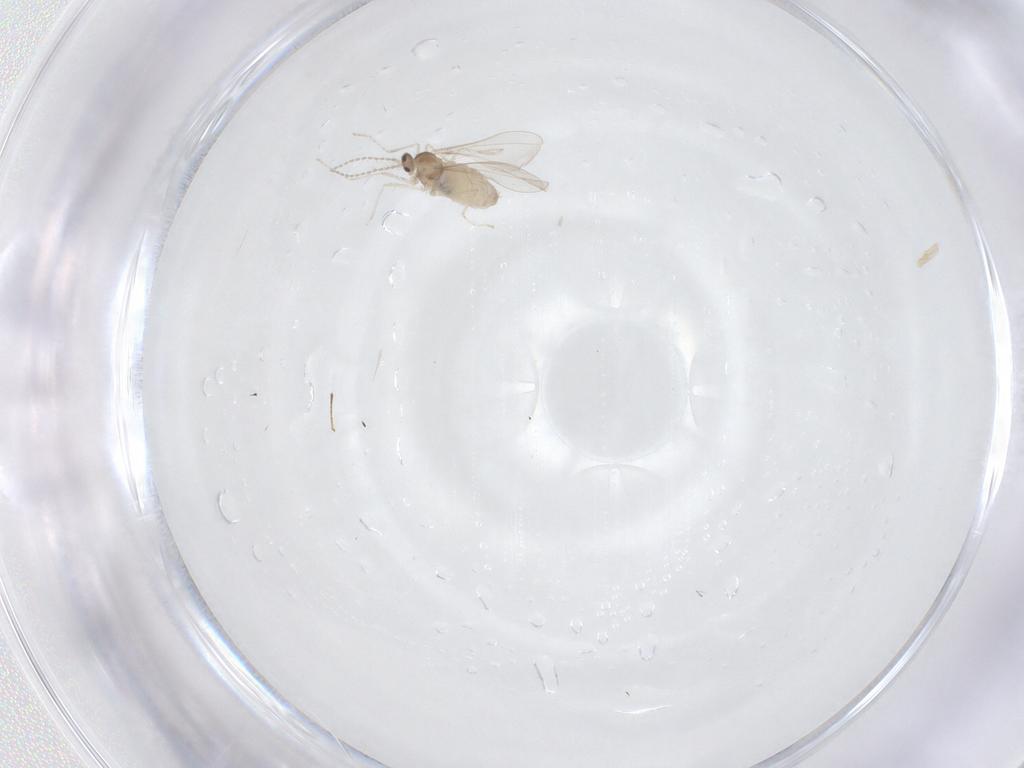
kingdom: Animalia
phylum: Arthropoda
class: Insecta
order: Diptera
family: Cecidomyiidae
